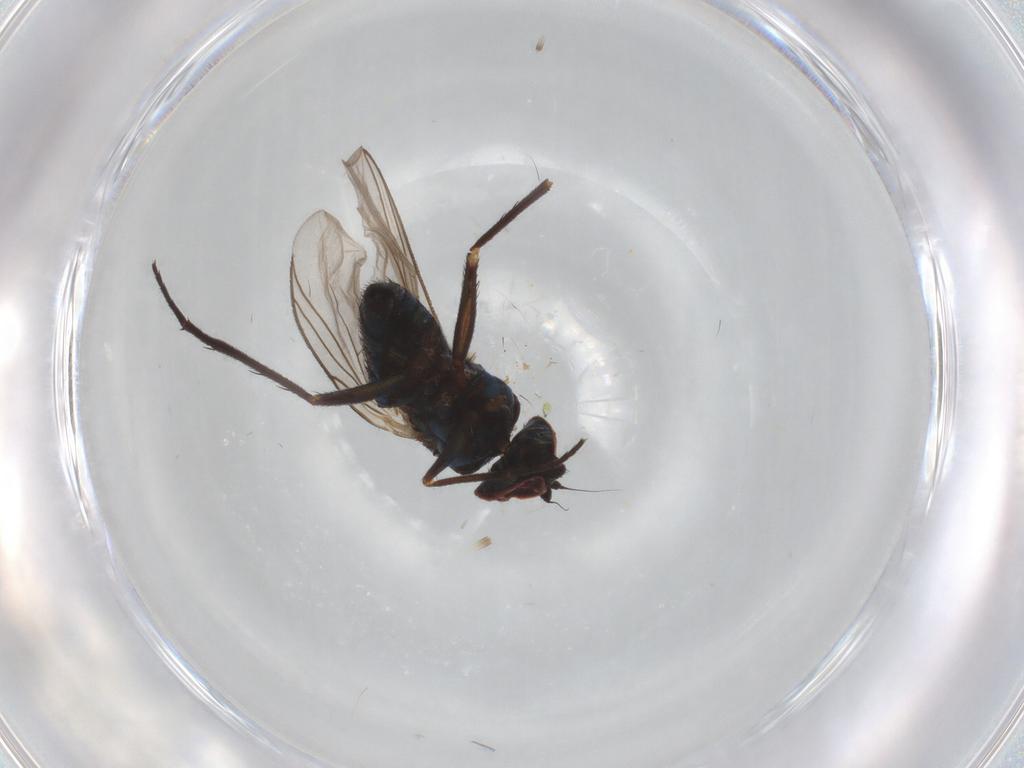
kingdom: Animalia
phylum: Arthropoda
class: Insecta
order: Diptera
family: Dolichopodidae
